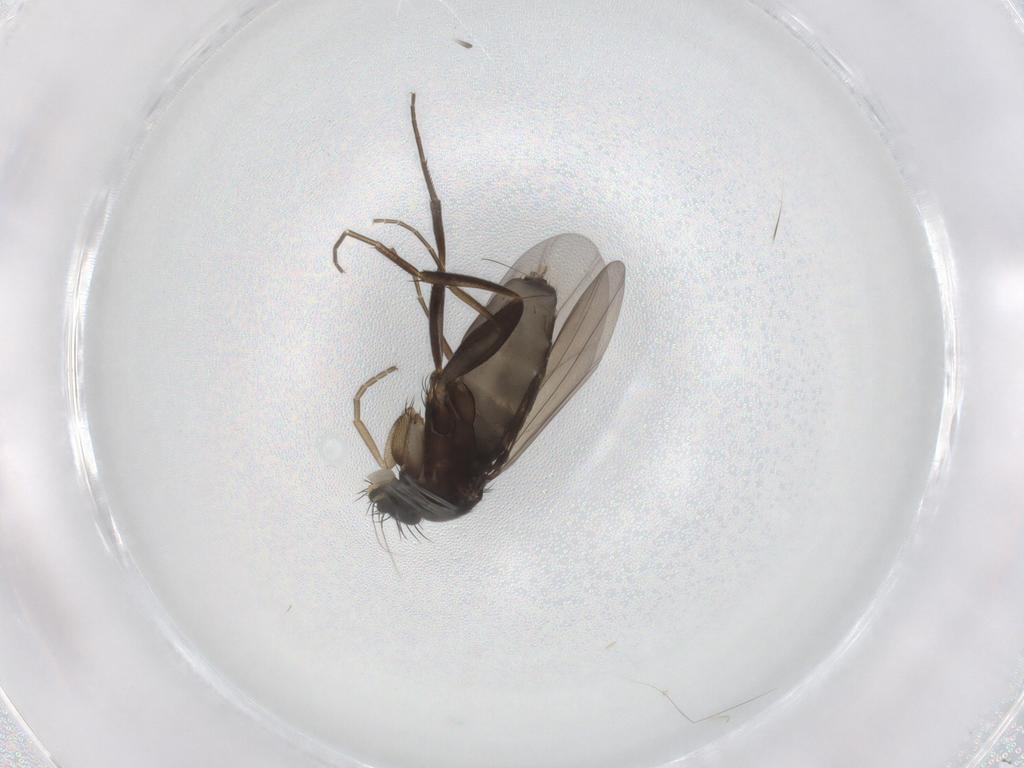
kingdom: Animalia
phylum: Arthropoda
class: Insecta
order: Diptera
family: Phoridae
